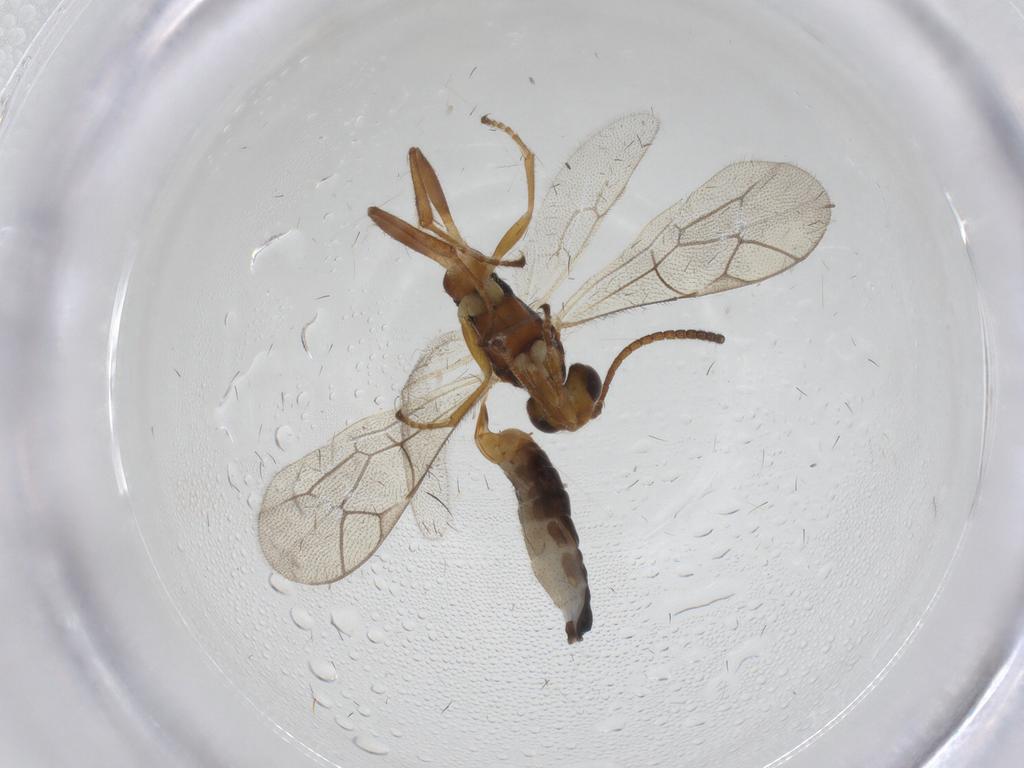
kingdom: Animalia
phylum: Arthropoda
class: Insecta
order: Hymenoptera
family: Ichneumonidae
